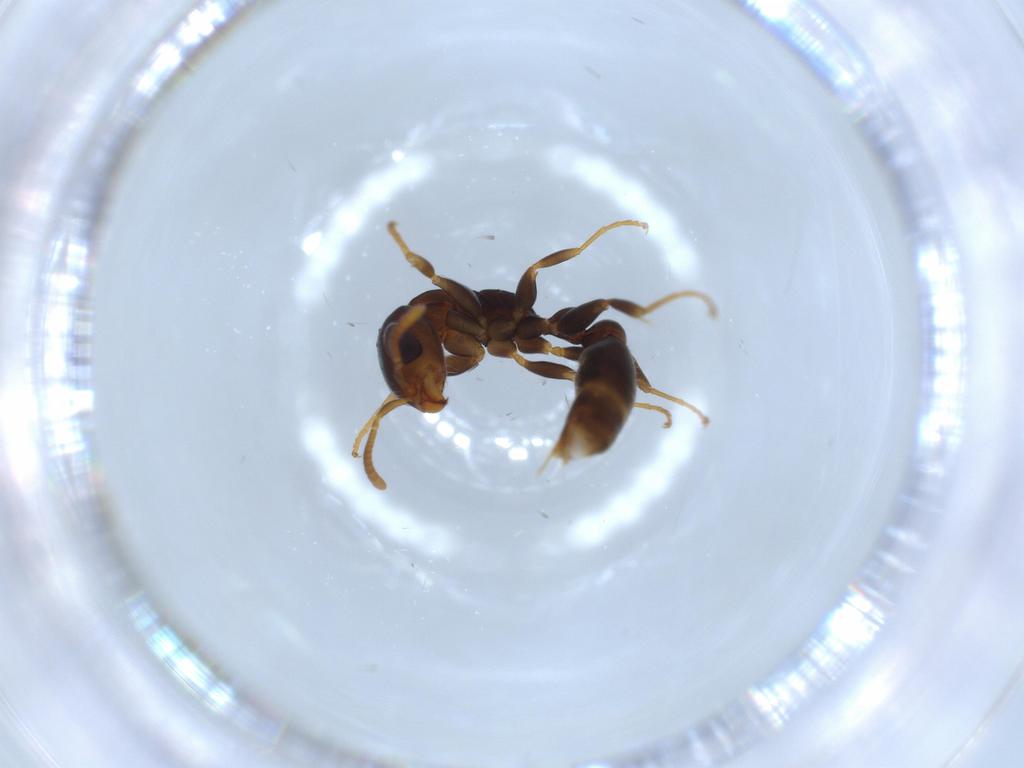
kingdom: Animalia
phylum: Arthropoda
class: Insecta
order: Hymenoptera
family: Formicidae
